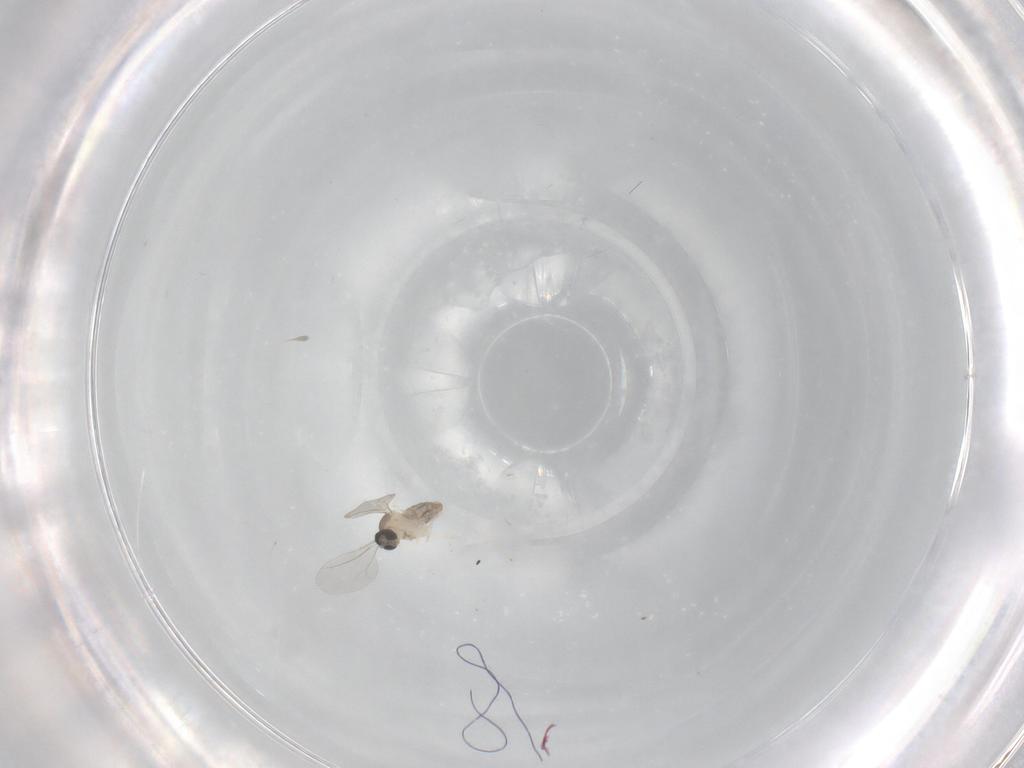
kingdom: Animalia
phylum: Arthropoda
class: Insecta
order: Diptera
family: Cecidomyiidae
